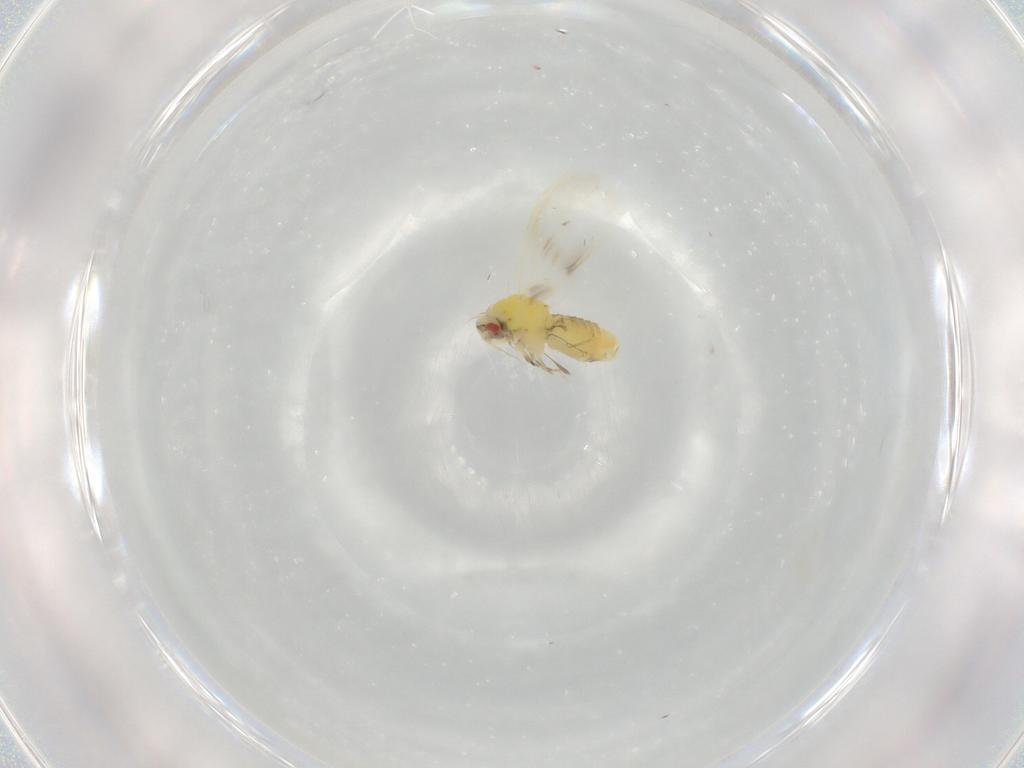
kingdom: Animalia
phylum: Arthropoda
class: Insecta
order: Hemiptera
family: Aleyrodidae
